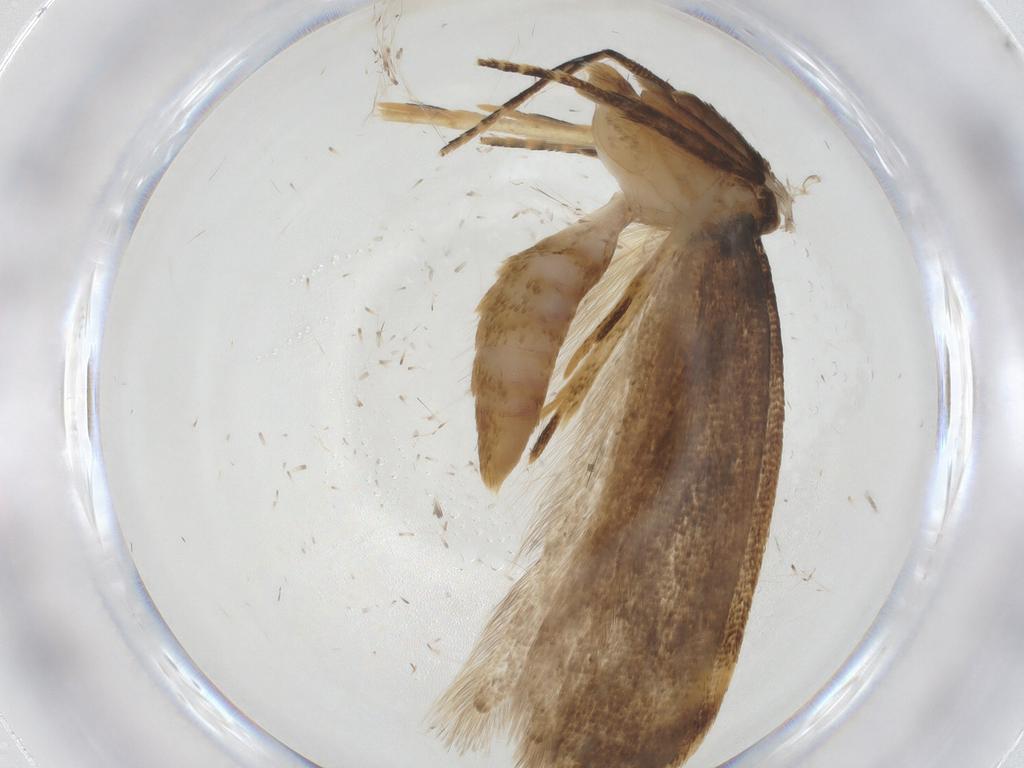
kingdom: Animalia
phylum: Arthropoda
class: Insecta
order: Lepidoptera
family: Gelechiidae
